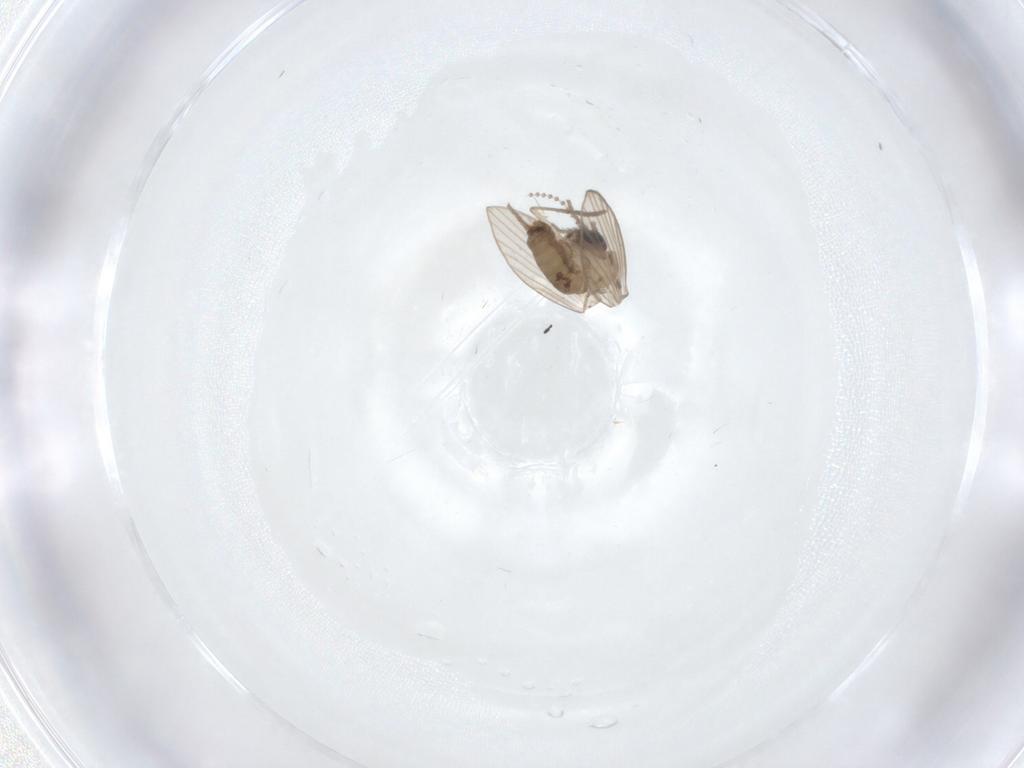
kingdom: Animalia
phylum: Arthropoda
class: Insecta
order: Diptera
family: Psychodidae
